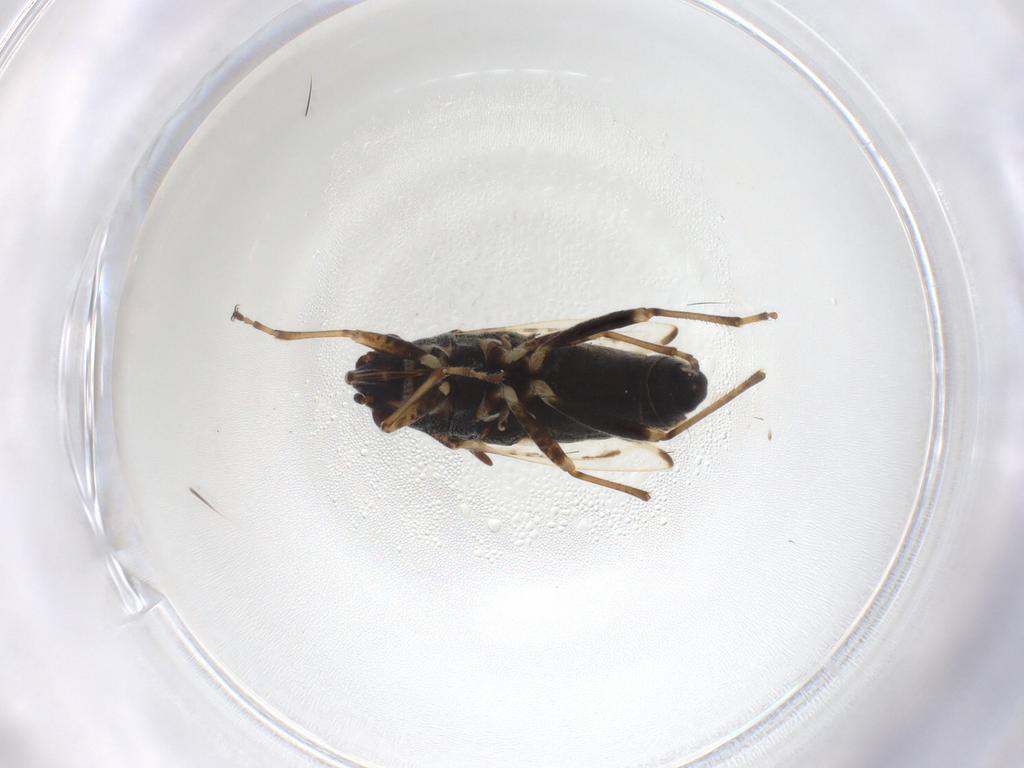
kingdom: Animalia
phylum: Arthropoda
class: Insecta
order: Hemiptera
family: Lygaeidae
